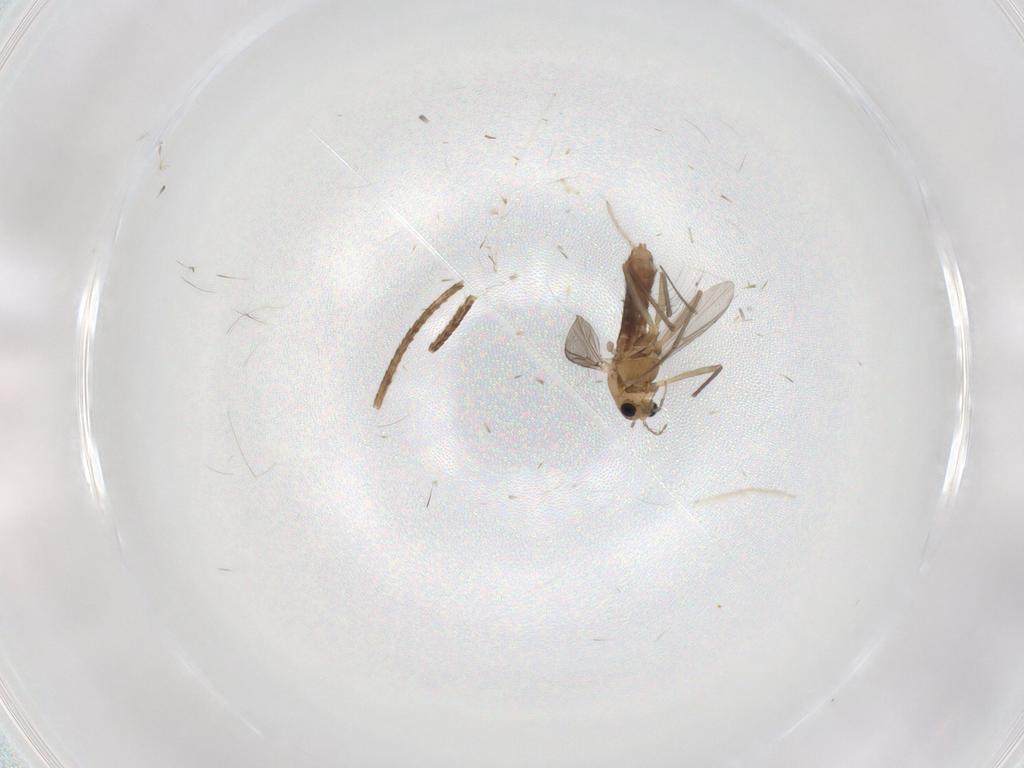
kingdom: Animalia
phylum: Arthropoda
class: Insecta
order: Diptera
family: Chironomidae
